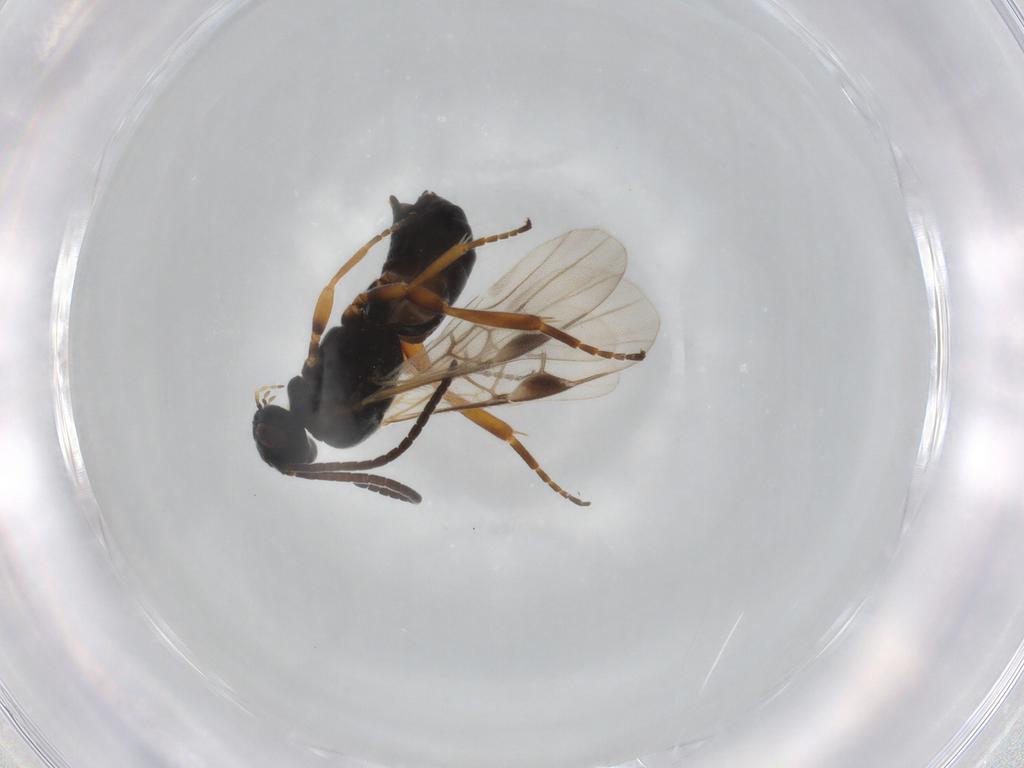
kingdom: Animalia
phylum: Arthropoda
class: Insecta
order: Hymenoptera
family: Braconidae
